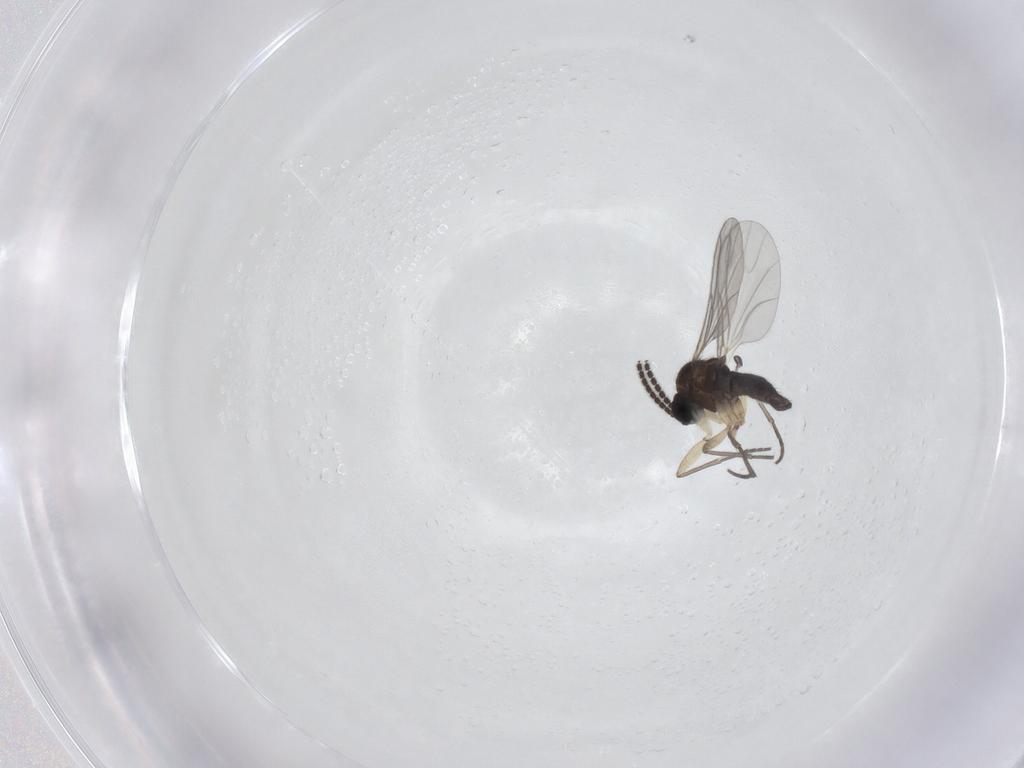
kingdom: Animalia
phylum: Arthropoda
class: Insecta
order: Diptera
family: Sciaridae
